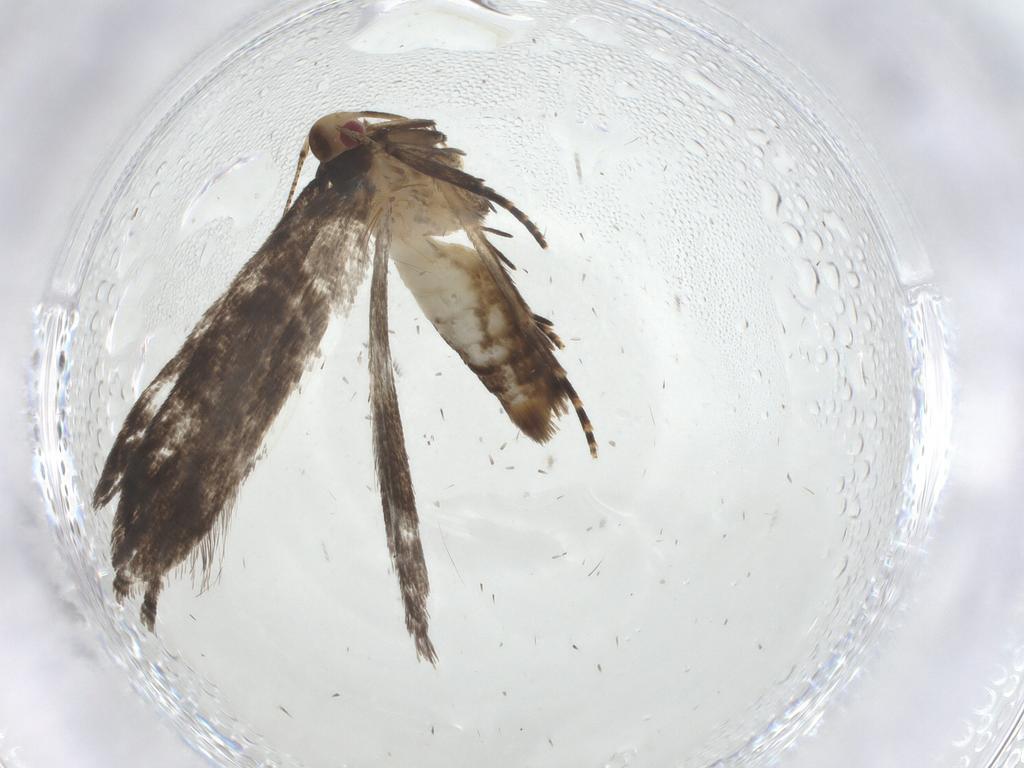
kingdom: Animalia
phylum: Arthropoda
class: Insecta
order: Lepidoptera
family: Gelechiidae
